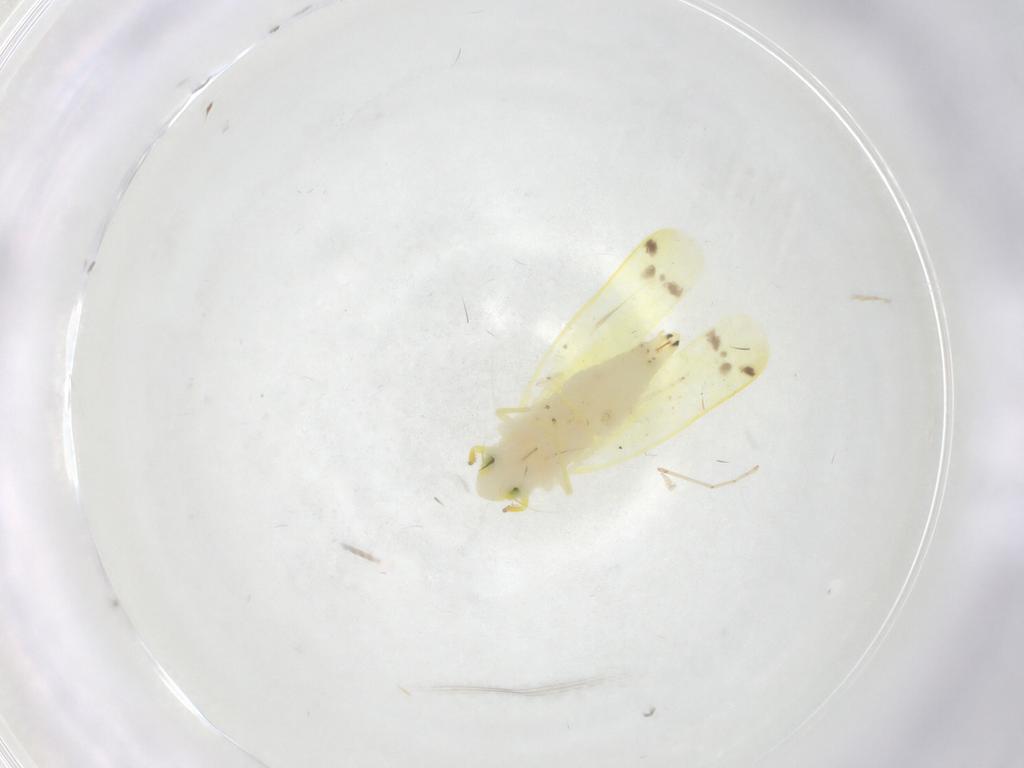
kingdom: Animalia
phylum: Arthropoda
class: Insecta
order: Hemiptera
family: Cicadellidae
